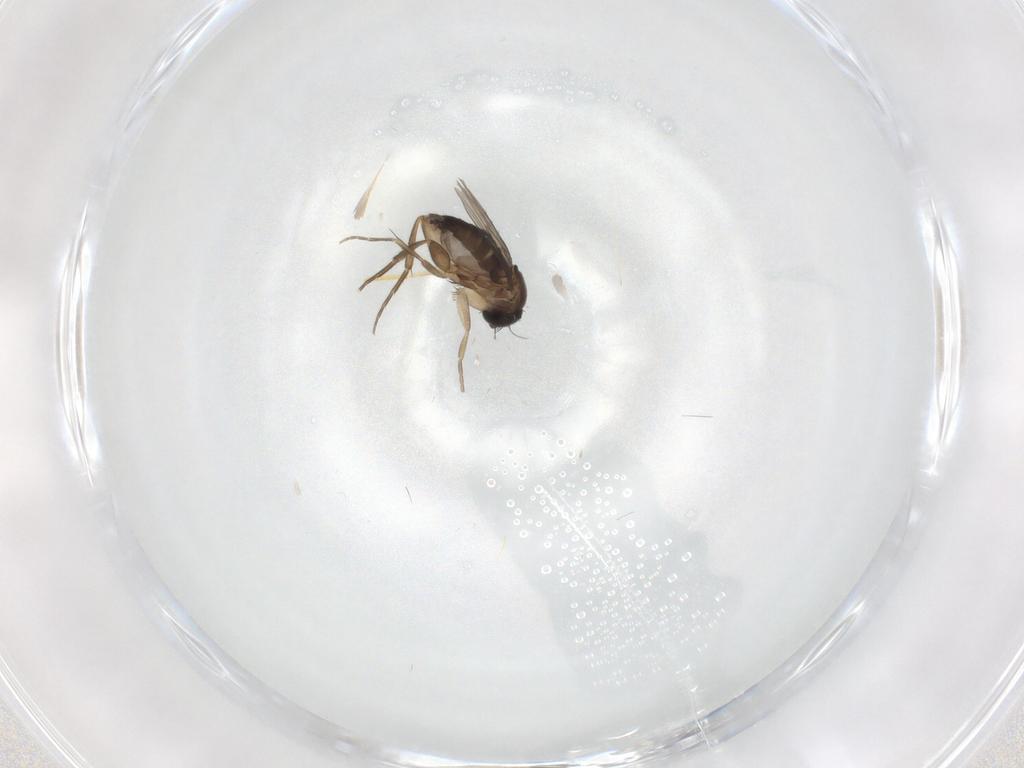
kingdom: Animalia
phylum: Arthropoda
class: Insecta
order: Diptera
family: Phoridae
